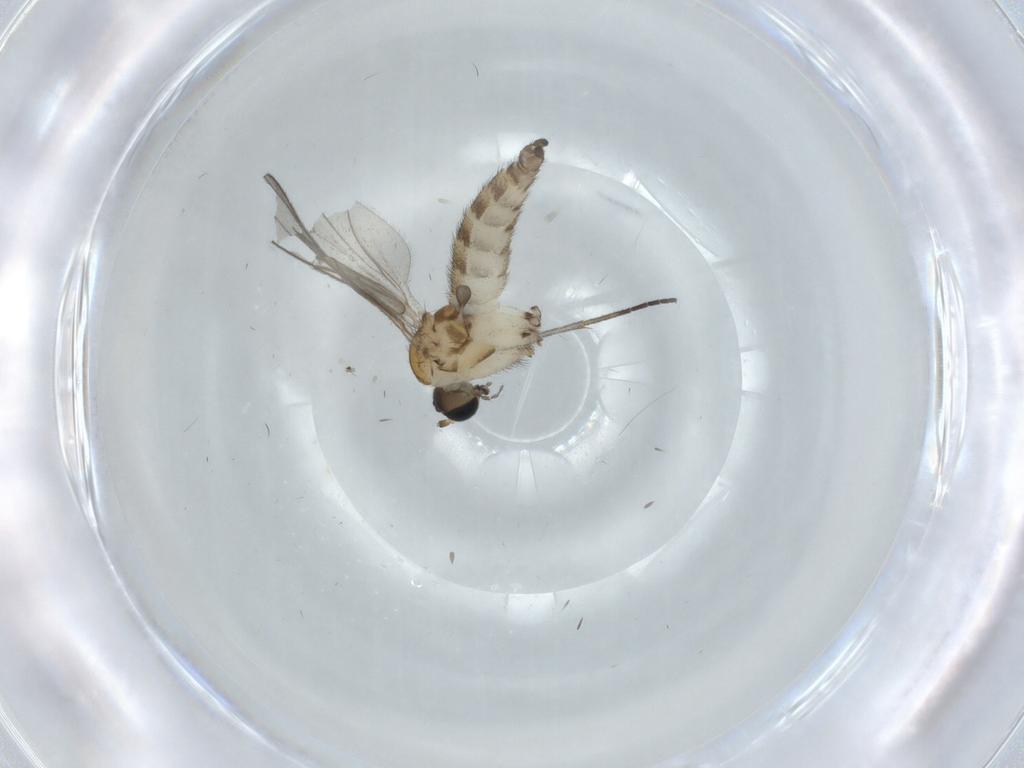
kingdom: Animalia
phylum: Arthropoda
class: Insecta
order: Diptera
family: Sciaridae
